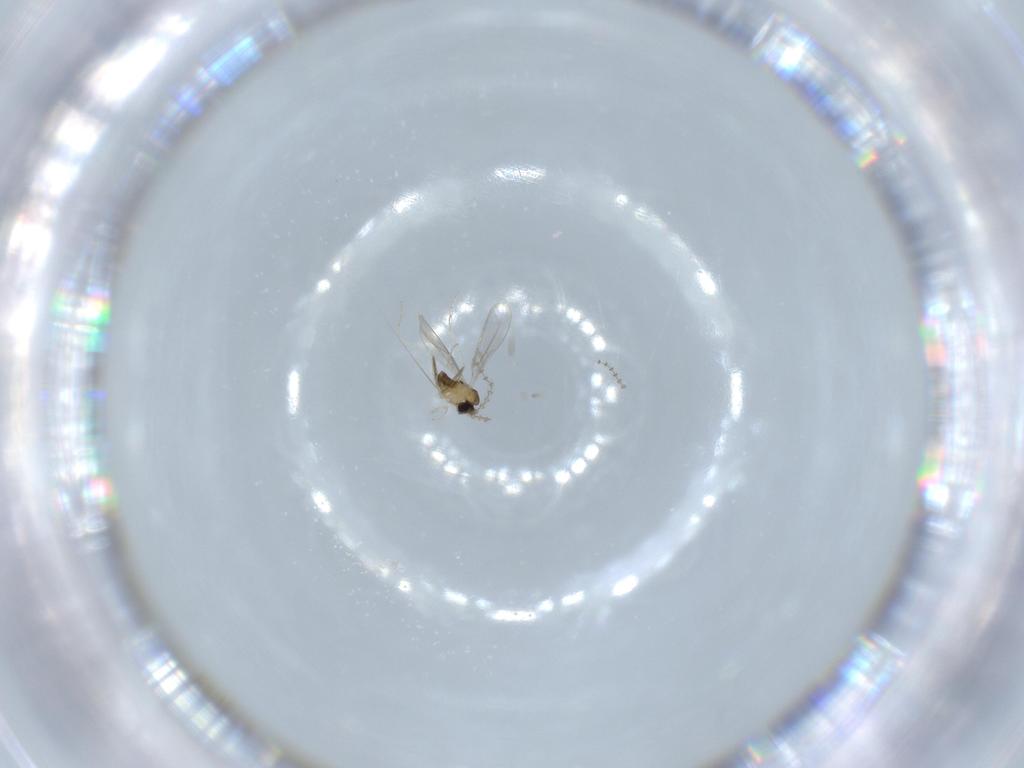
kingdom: Animalia
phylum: Arthropoda
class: Insecta
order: Diptera
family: Cecidomyiidae
